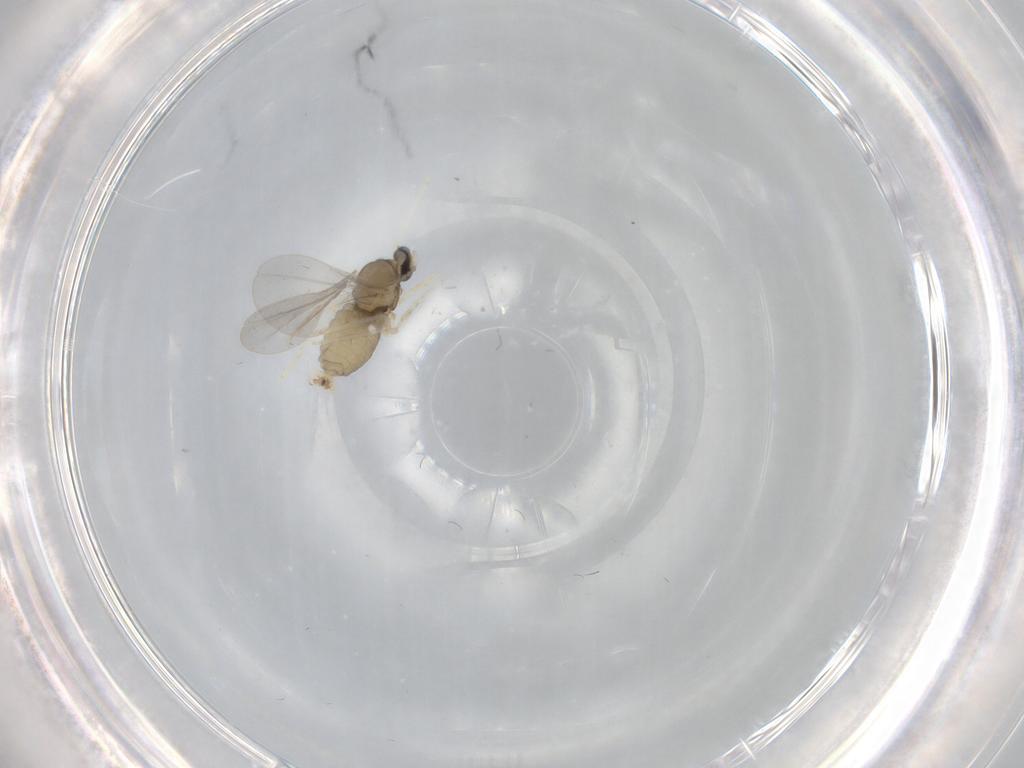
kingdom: Animalia
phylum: Arthropoda
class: Insecta
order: Diptera
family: Cecidomyiidae
